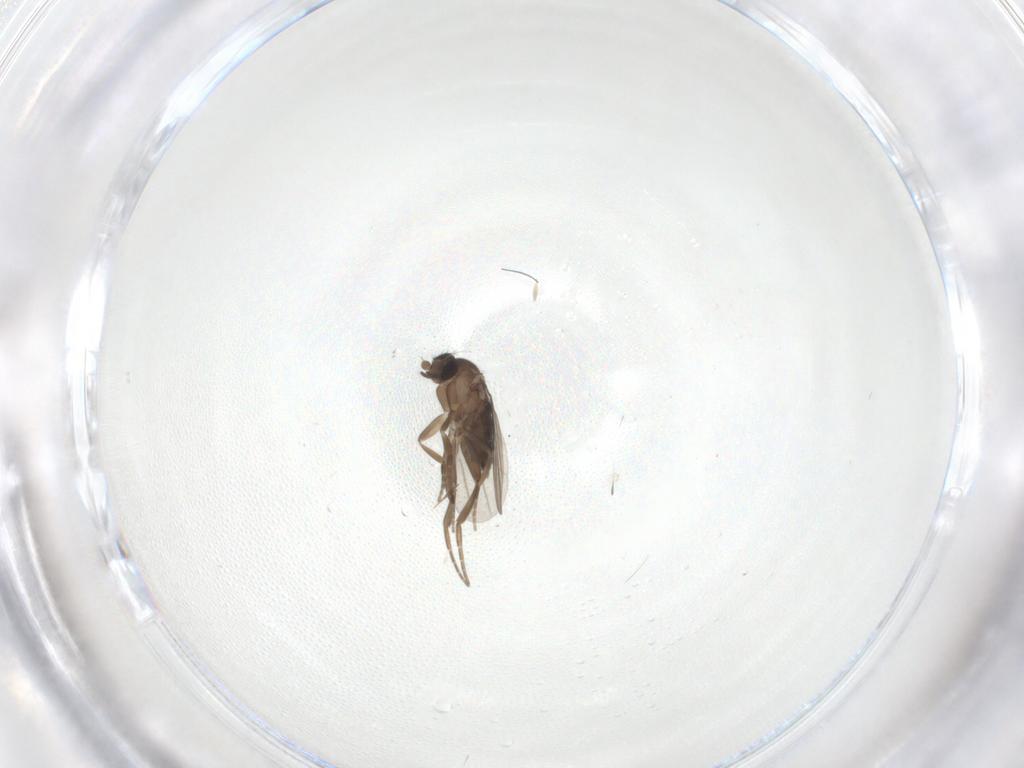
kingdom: Animalia
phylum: Arthropoda
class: Insecta
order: Diptera
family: Phoridae
